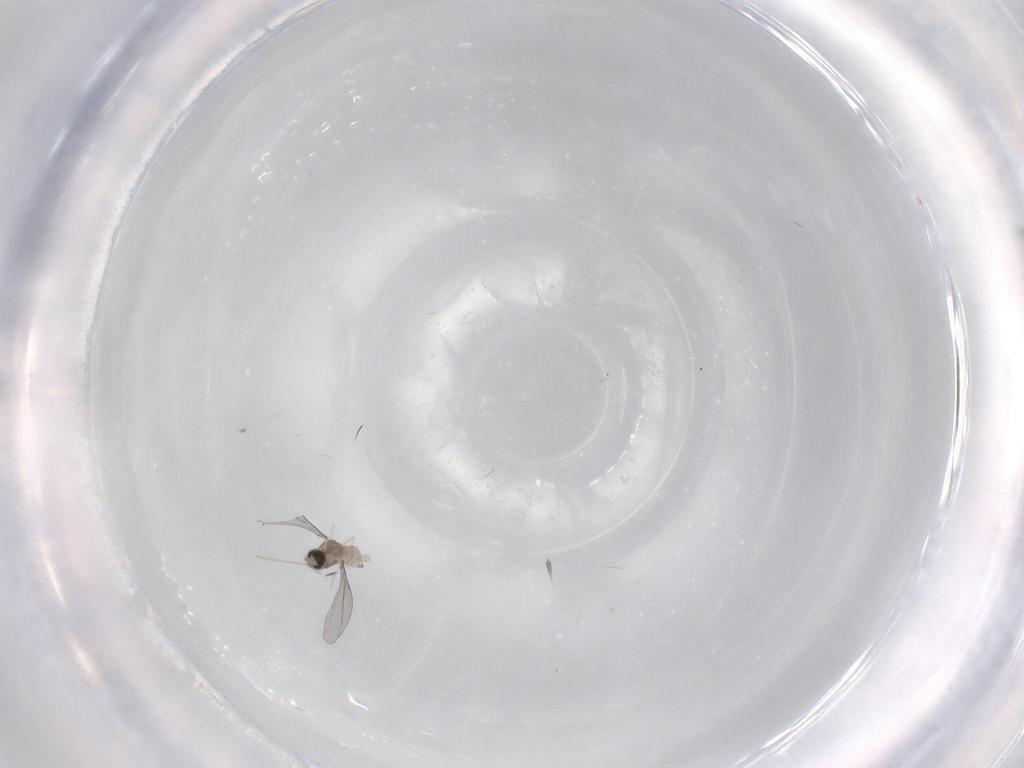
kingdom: Animalia
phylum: Arthropoda
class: Insecta
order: Diptera
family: Cecidomyiidae
